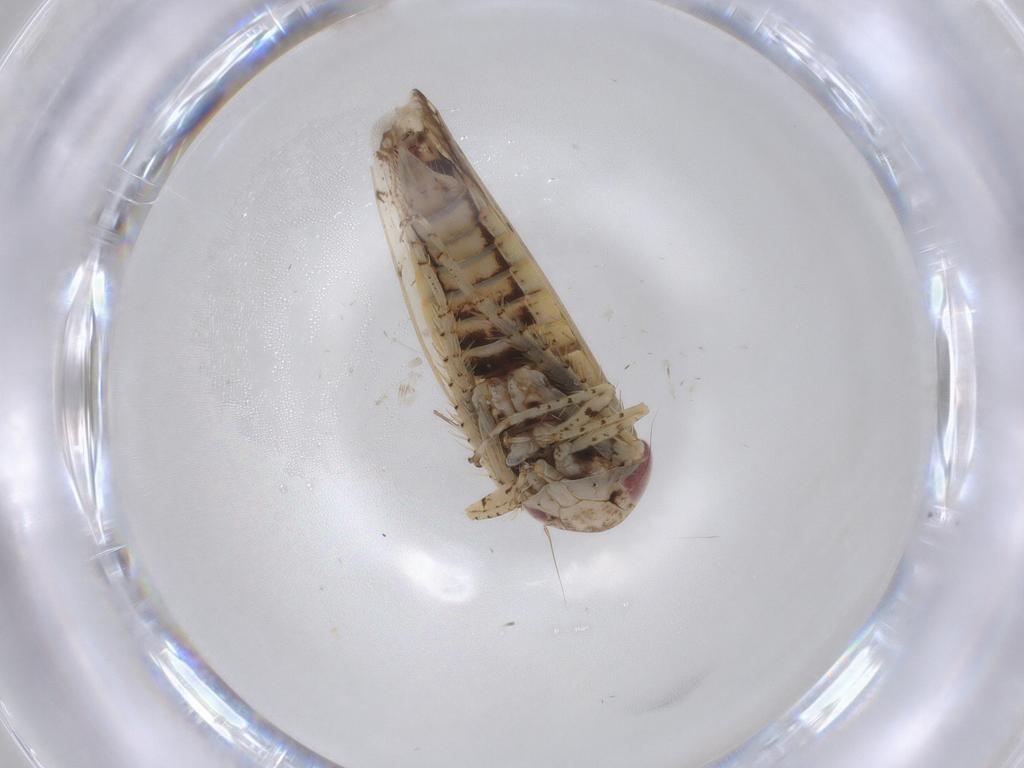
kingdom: Animalia
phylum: Arthropoda
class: Insecta
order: Hemiptera
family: Cicadellidae
